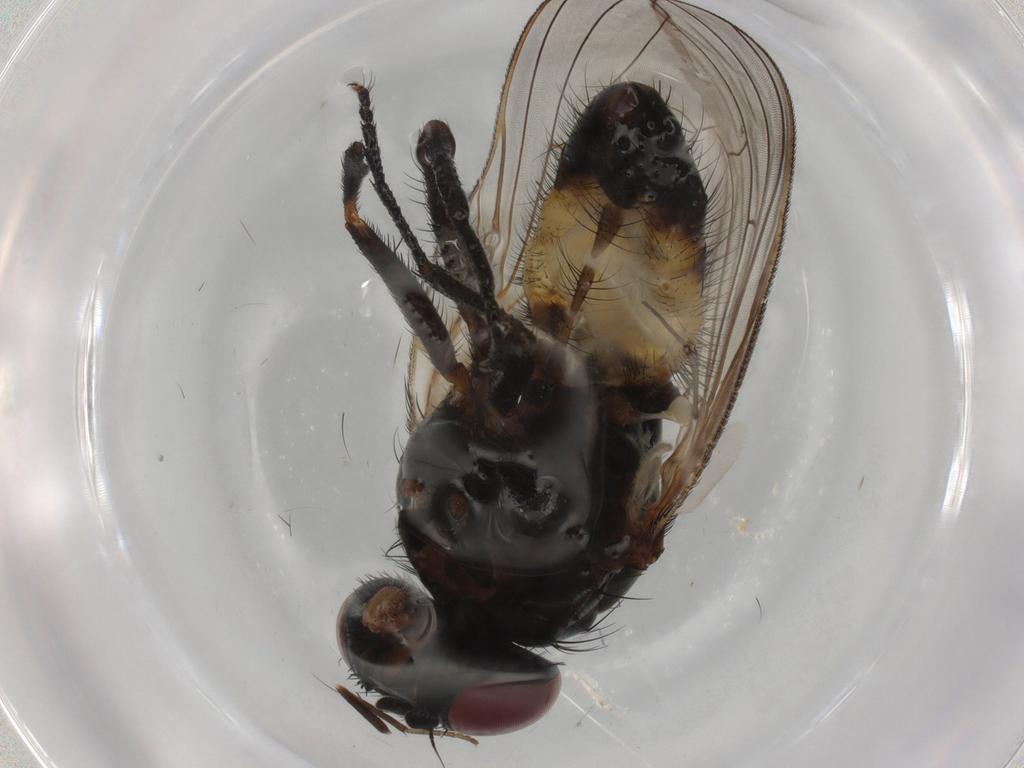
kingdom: Animalia
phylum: Arthropoda
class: Insecta
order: Diptera
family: Fannia
